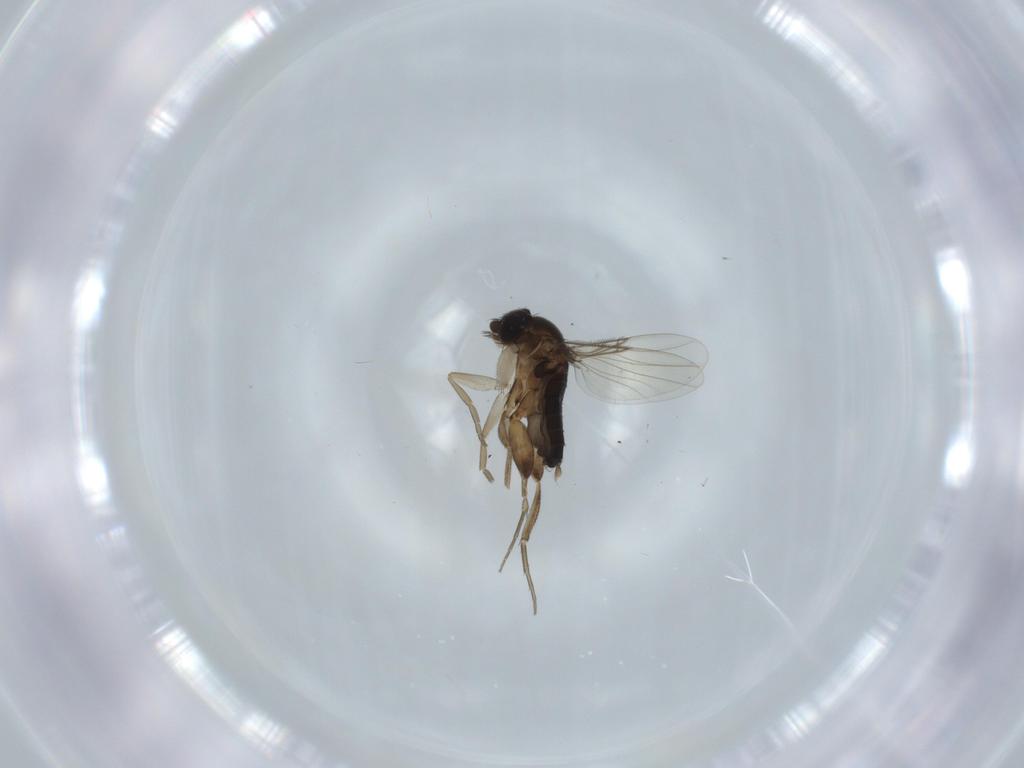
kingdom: Animalia
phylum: Arthropoda
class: Insecta
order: Diptera
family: Phoridae
